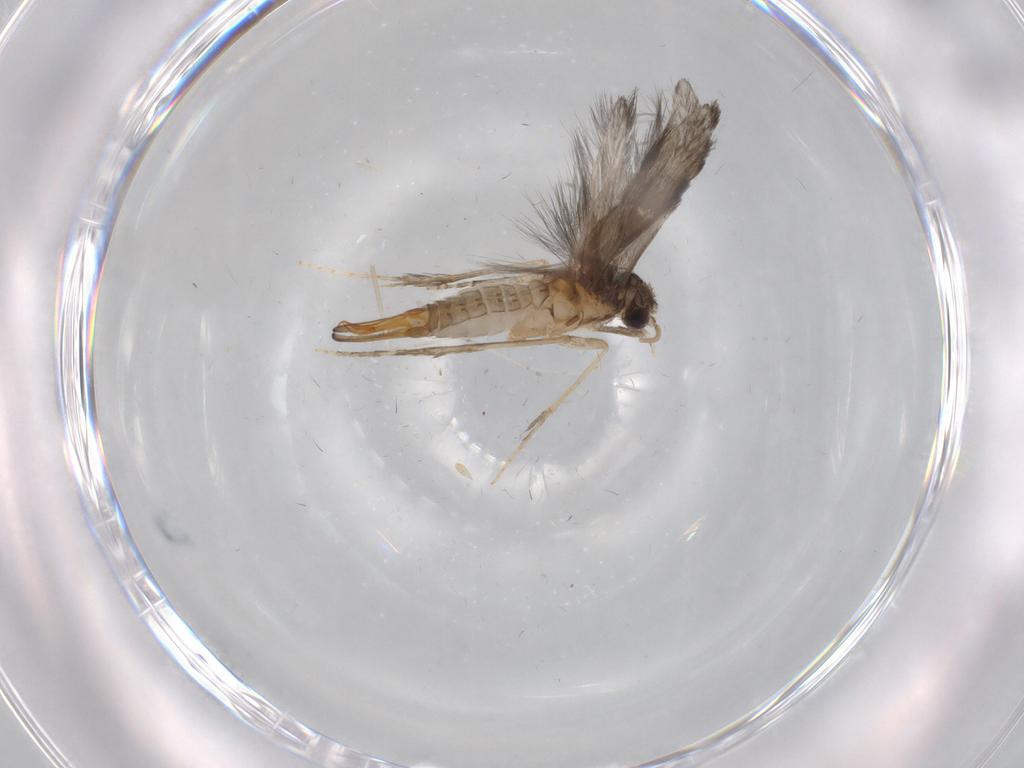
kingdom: Animalia
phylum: Arthropoda
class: Insecta
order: Trichoptera
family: Hydroptilidae
